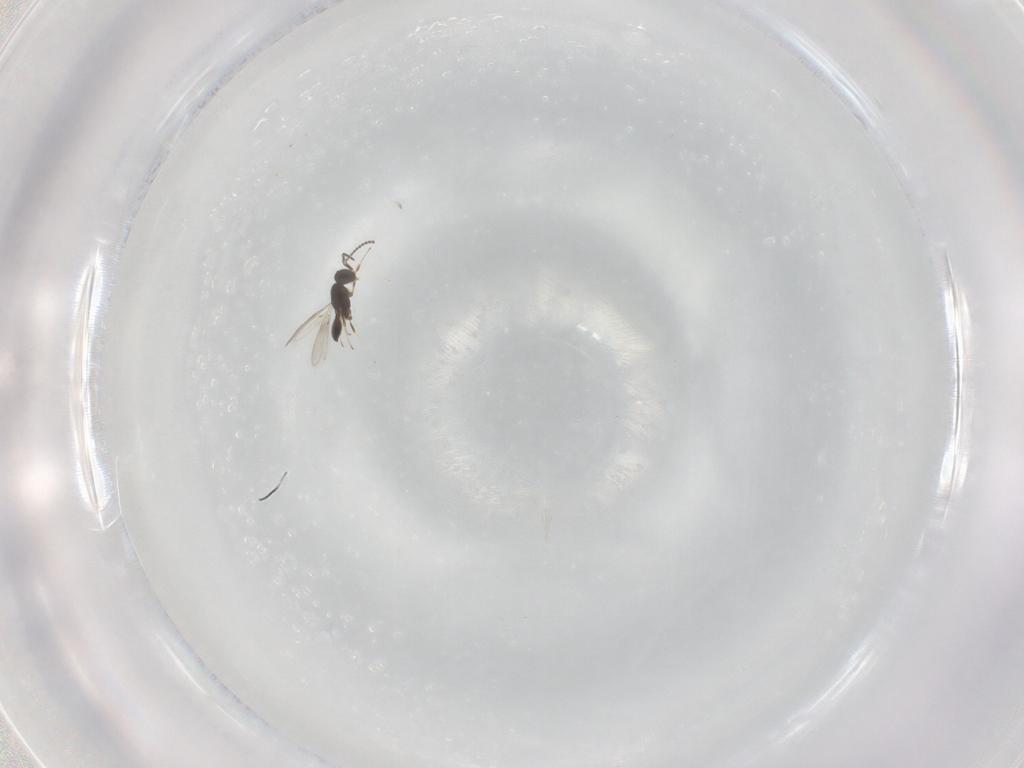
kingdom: Animalia
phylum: Arthropoda
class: Insecta
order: Hymenoptera
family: Scelionidae
